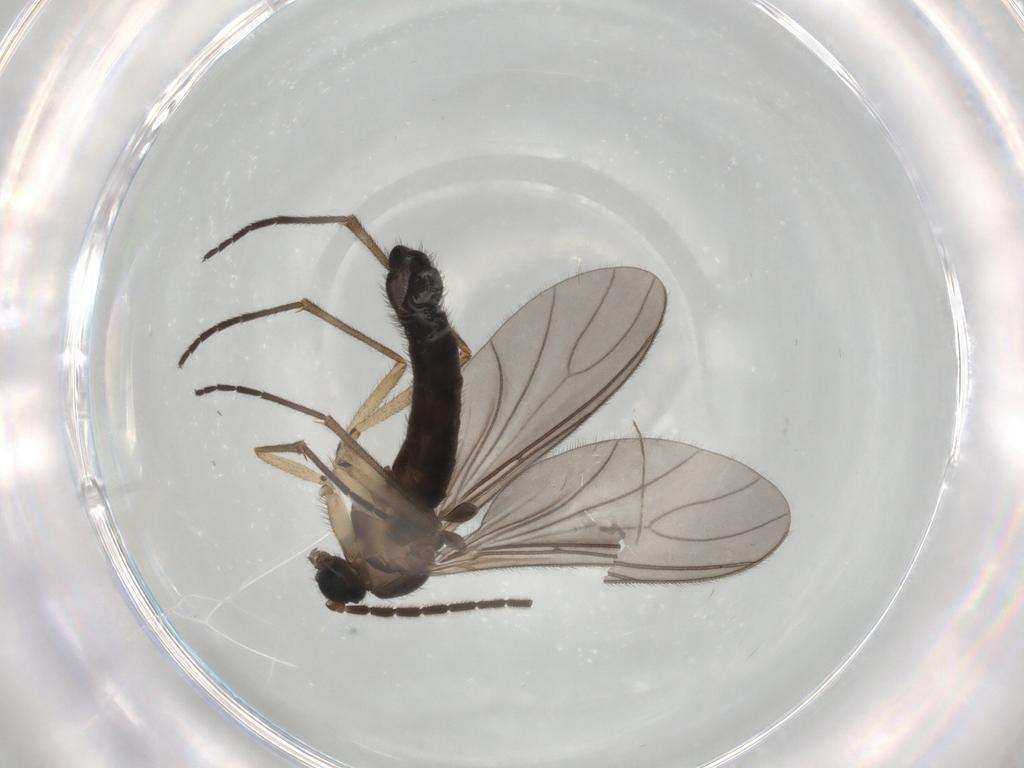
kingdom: Animalia
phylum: Arthropoda
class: Insecta
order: Diptera
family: Sciaridae
